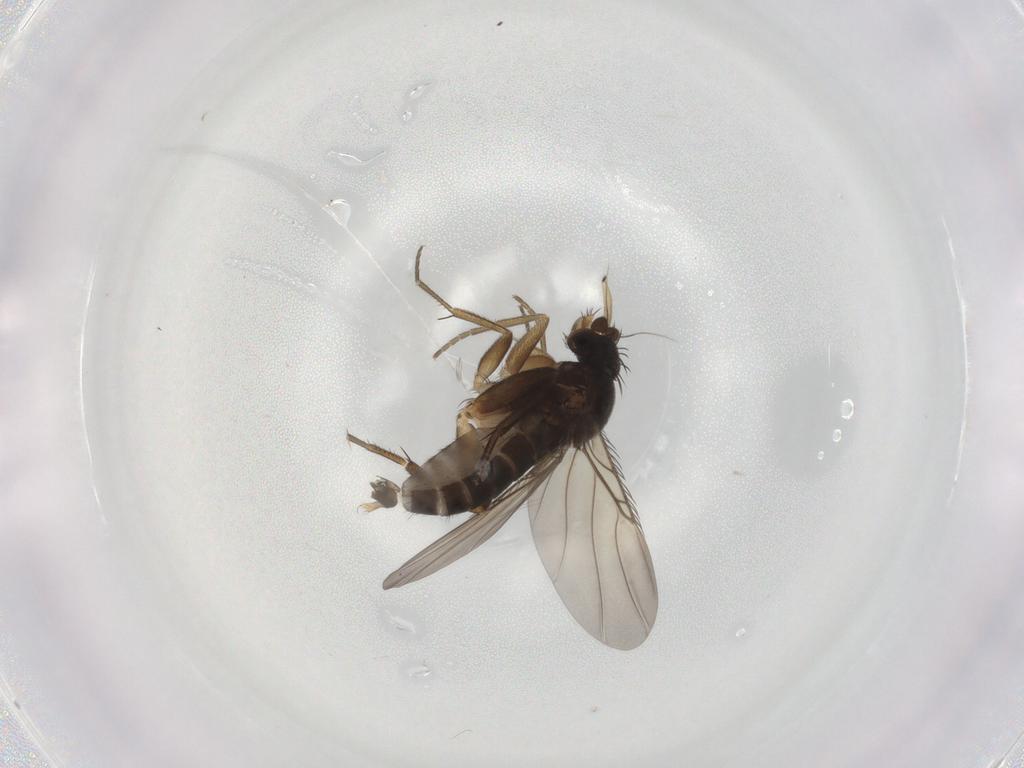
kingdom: Animalia
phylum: Arthropoda
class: Insecta
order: Diptera
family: Phoridae
